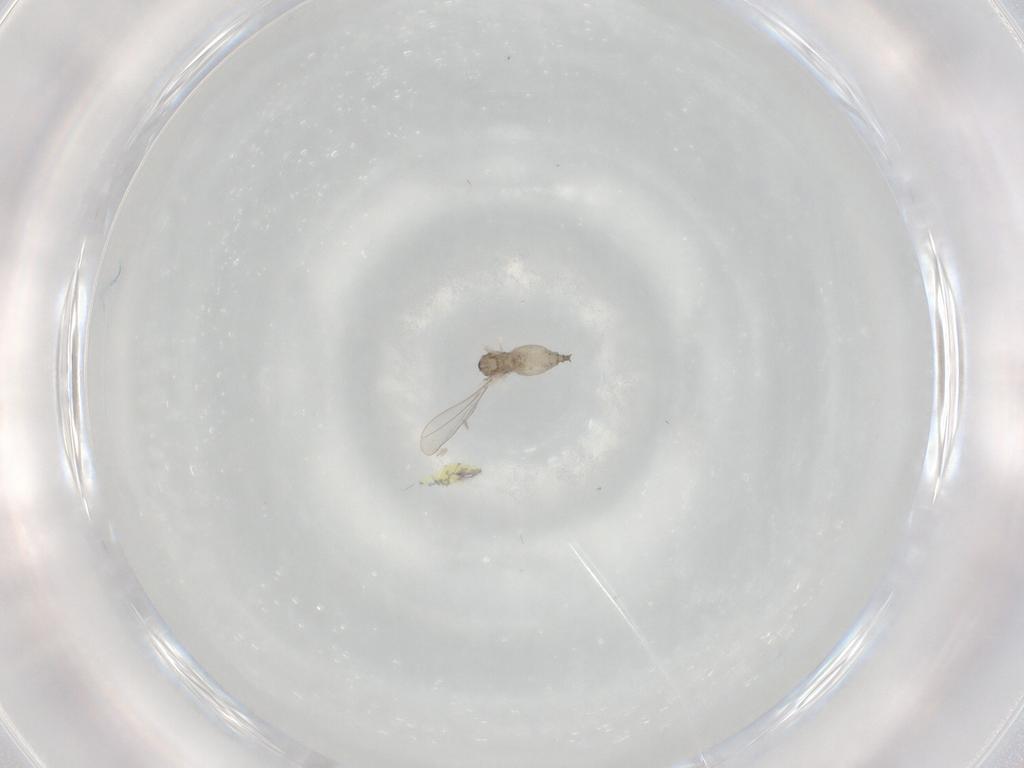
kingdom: Animalia
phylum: Arthropoda
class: Insecta
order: Diptera
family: Cecidomyiidae
